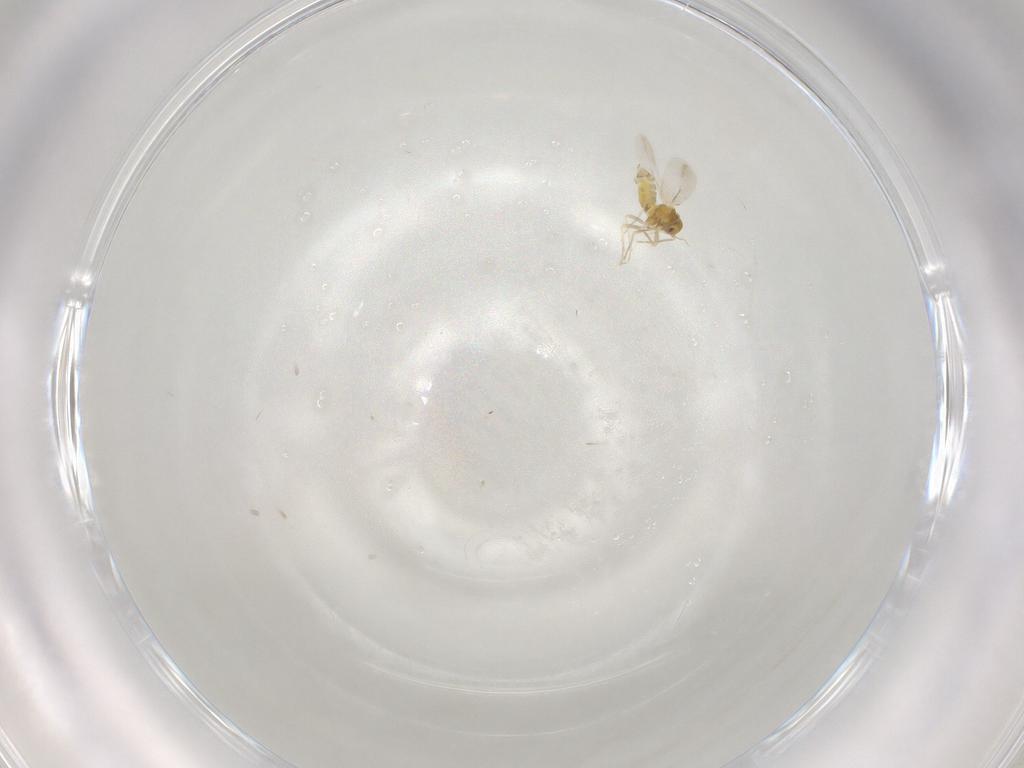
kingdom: Animalia
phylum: Arthropoda
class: Insecta
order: Hemiptera
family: Aleyrodidae
